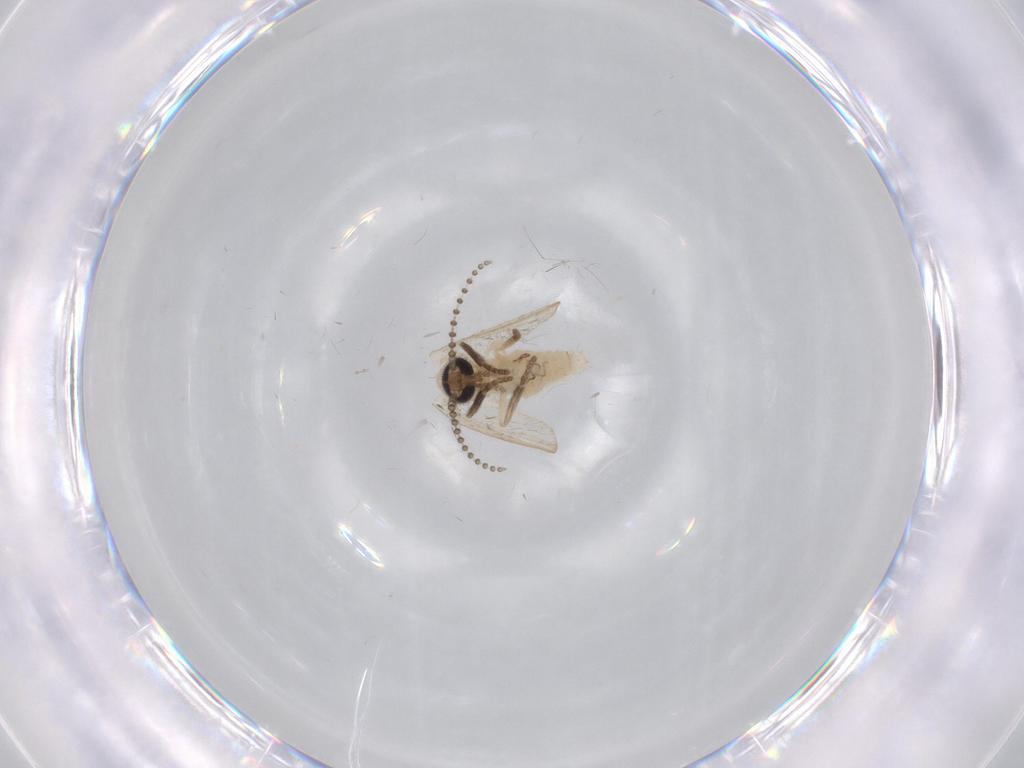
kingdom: Animalia
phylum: Arthropoda
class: Insecta
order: Diptera
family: Psychodidae
